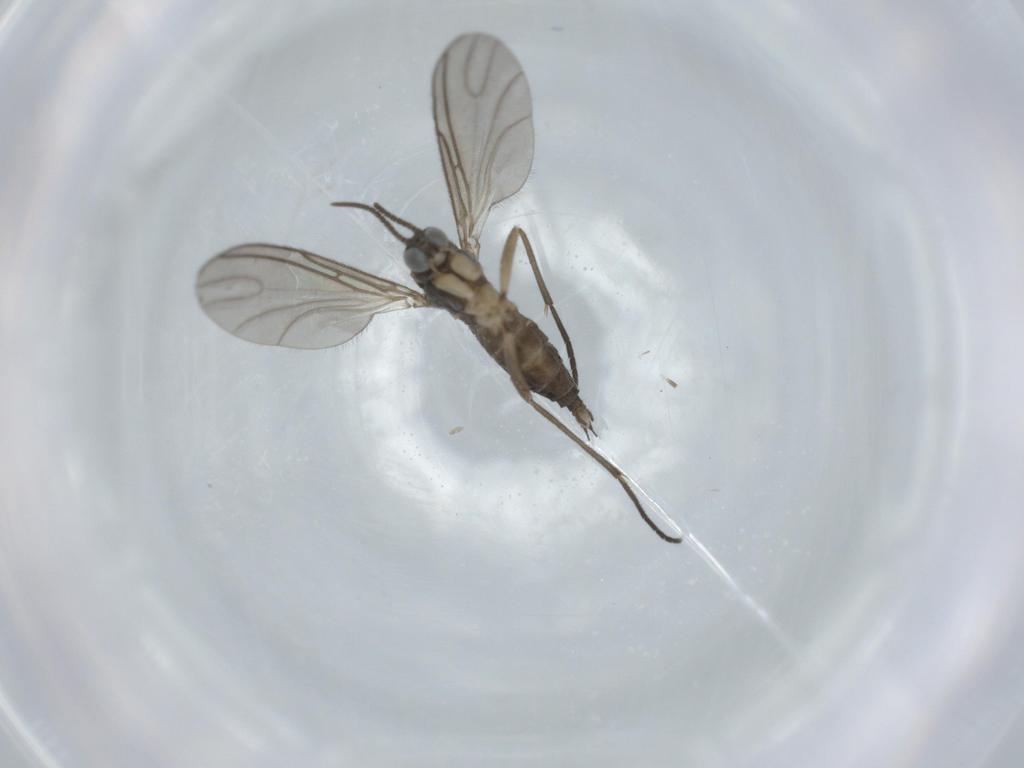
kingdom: Animalia
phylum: Arthropoda
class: Insecta
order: Diptera
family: Sciaridae
